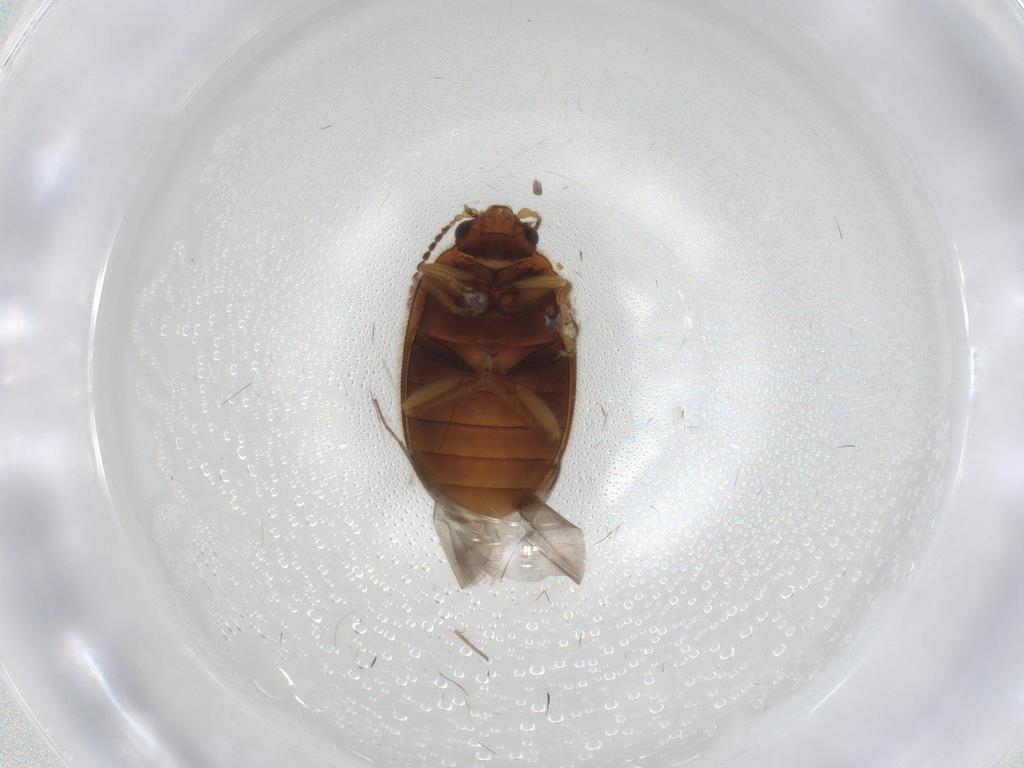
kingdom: Animalia
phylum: Arthropoda
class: Insecta
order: Coleoptera
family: Scirtidae
